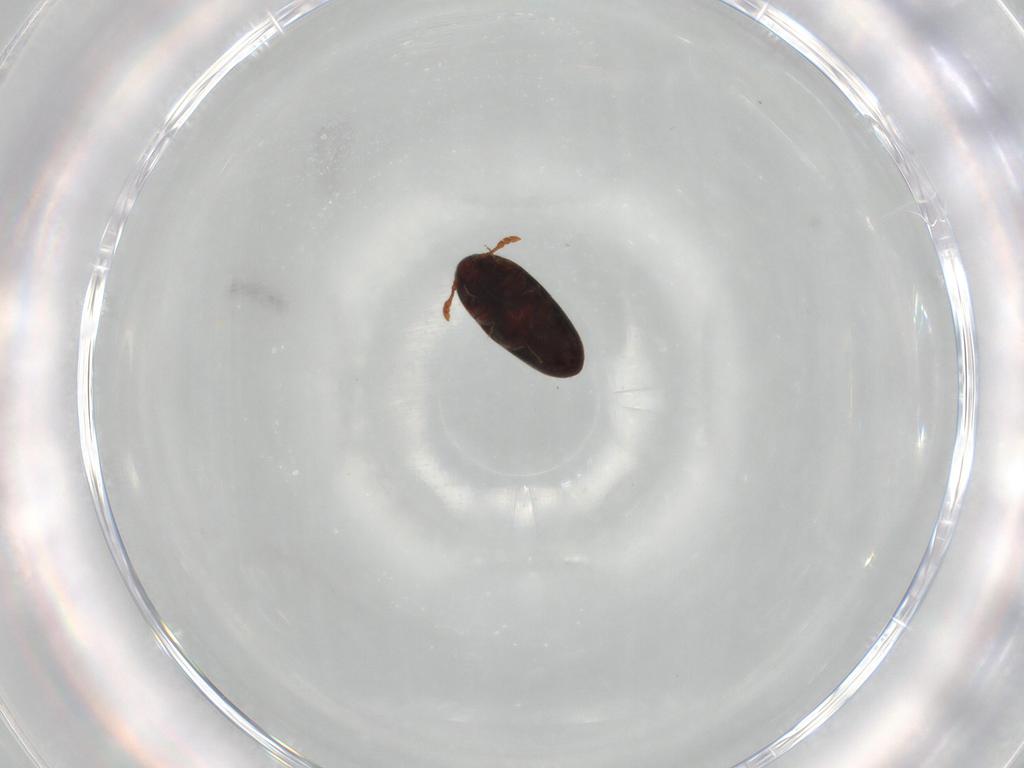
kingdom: Animalia
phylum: Arthropoda
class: Insecta
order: Coleoptera
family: Throscidae
